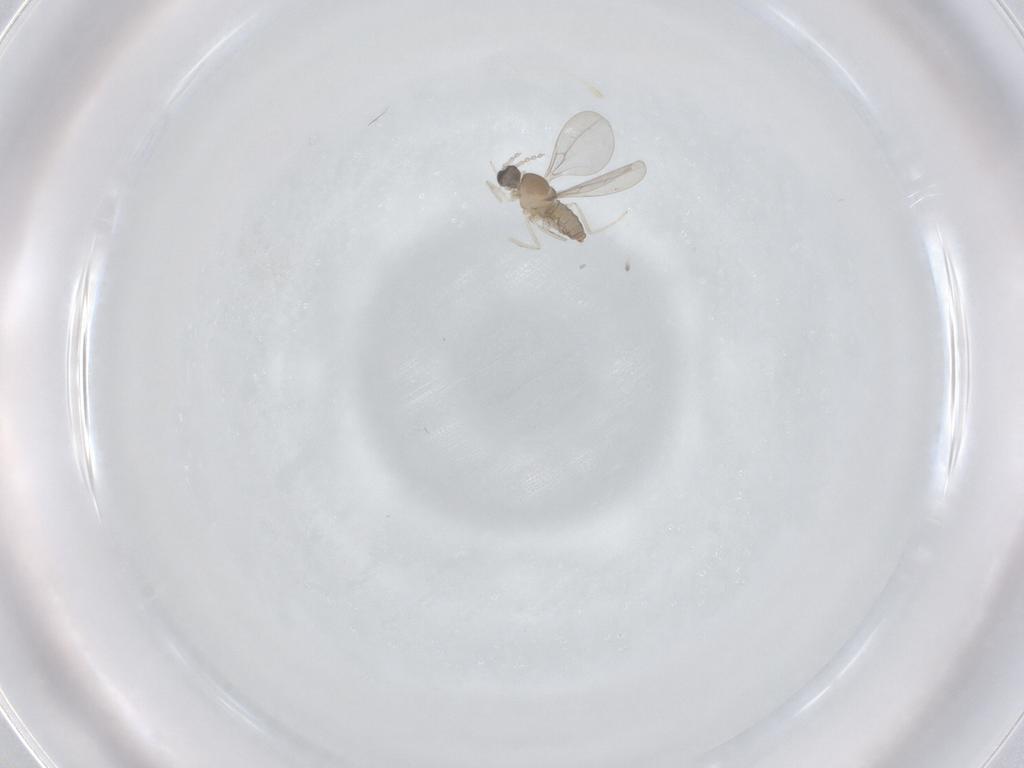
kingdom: Animalia
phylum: Arthropoda
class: Insecta
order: Diptera
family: Cecidomyiidae
